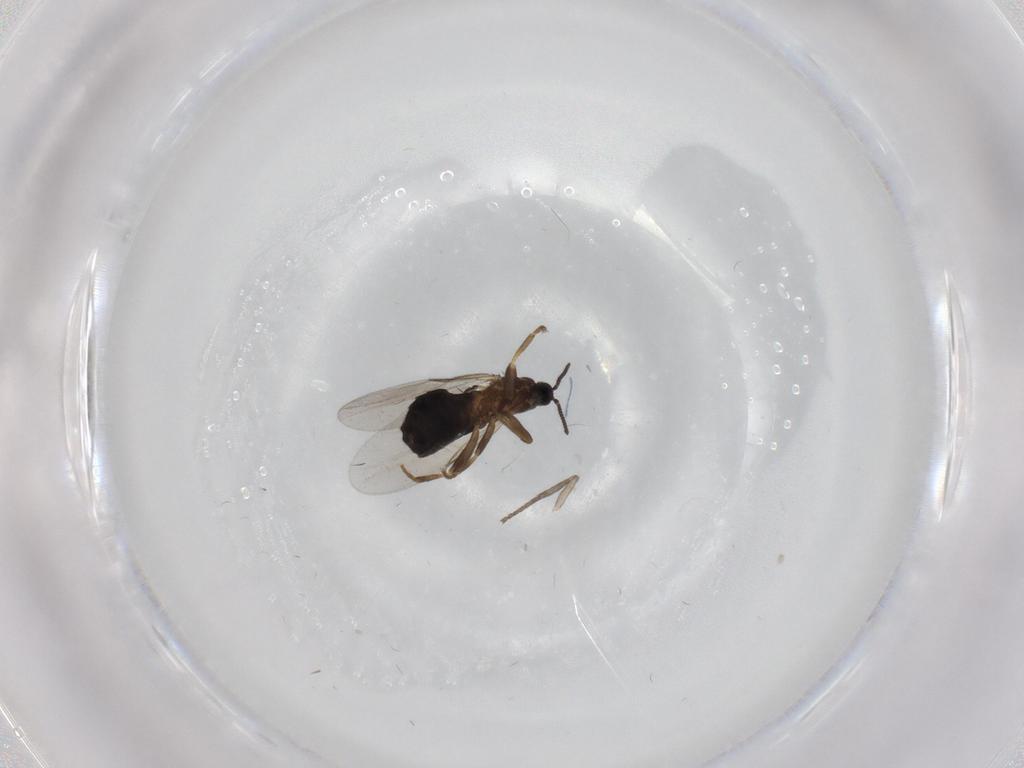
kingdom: Animalia
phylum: Arthropoda
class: Insecta
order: Diptera
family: Scatopsidae
